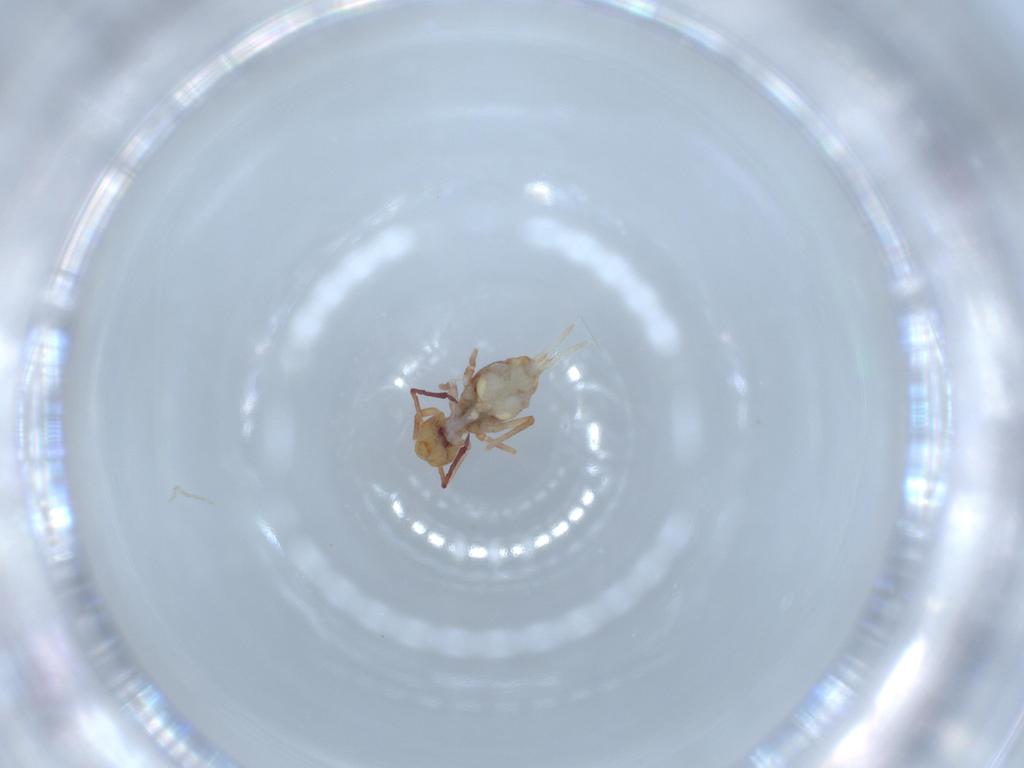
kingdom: Animalia
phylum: Arthropoda
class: Collembola
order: Symphypleona
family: Dicyrtomidae
